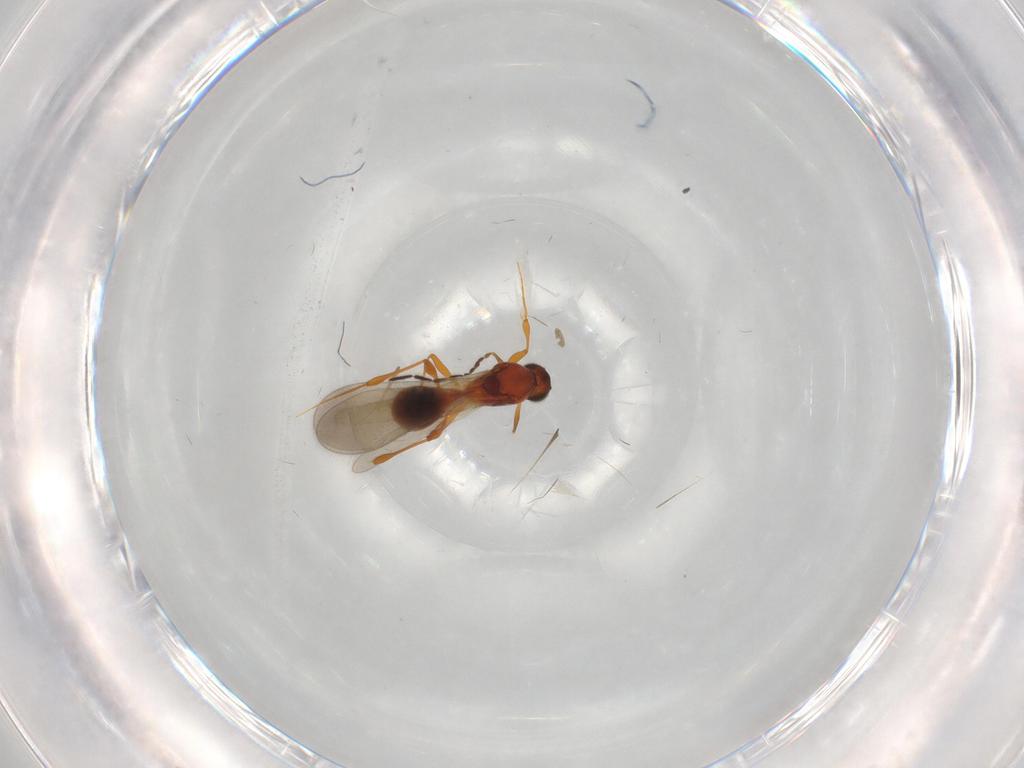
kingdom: Animalia
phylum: Arthropoda
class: Insecta
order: Hymenoptera
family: Platygastridae
